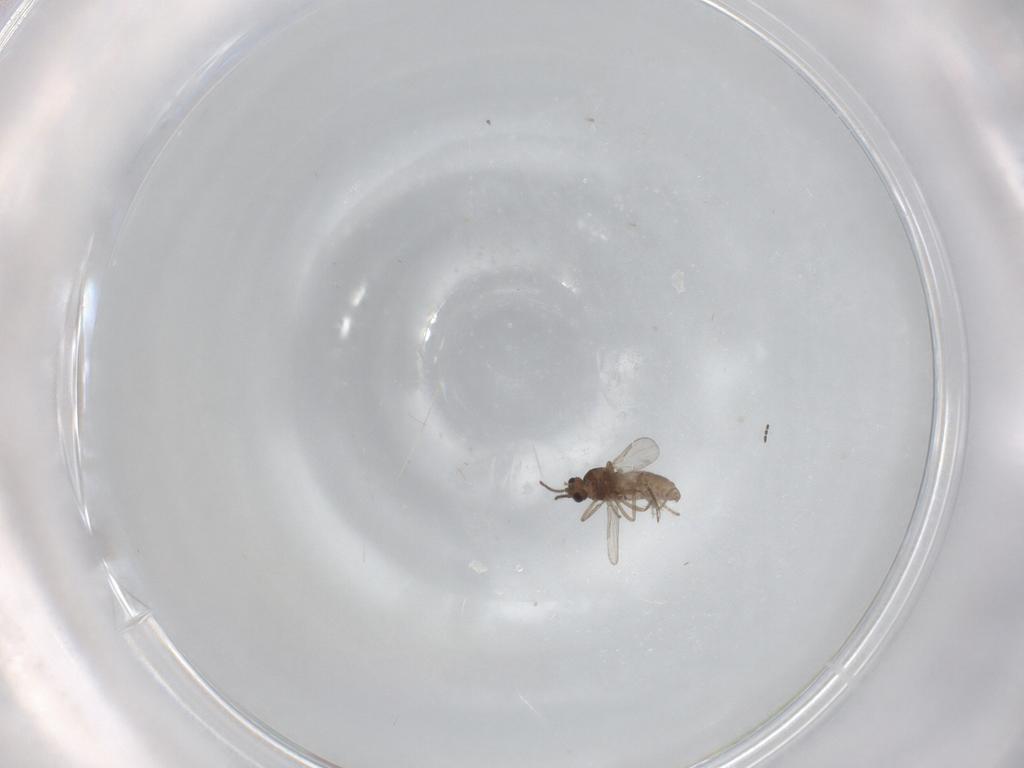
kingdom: Animalia
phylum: Arthropoda
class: Insecta
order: Diptera
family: Ceratopogonidae
